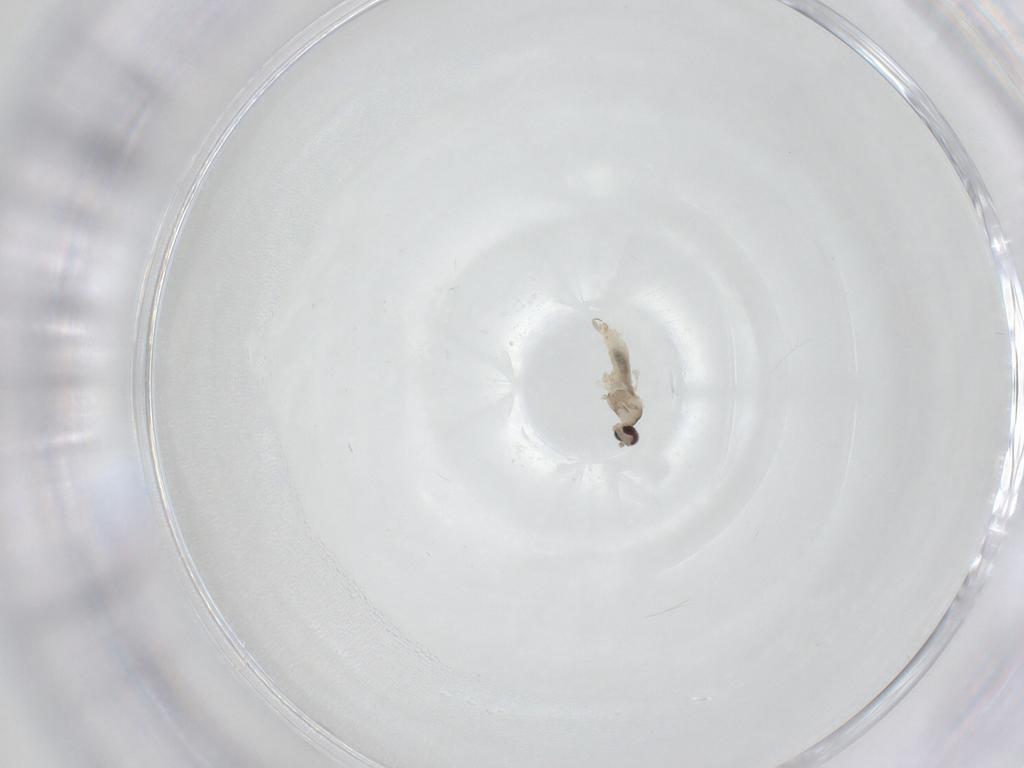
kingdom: Animalia
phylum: Arthropoda
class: Insecta
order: Diptera
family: Cecidomyiidae
